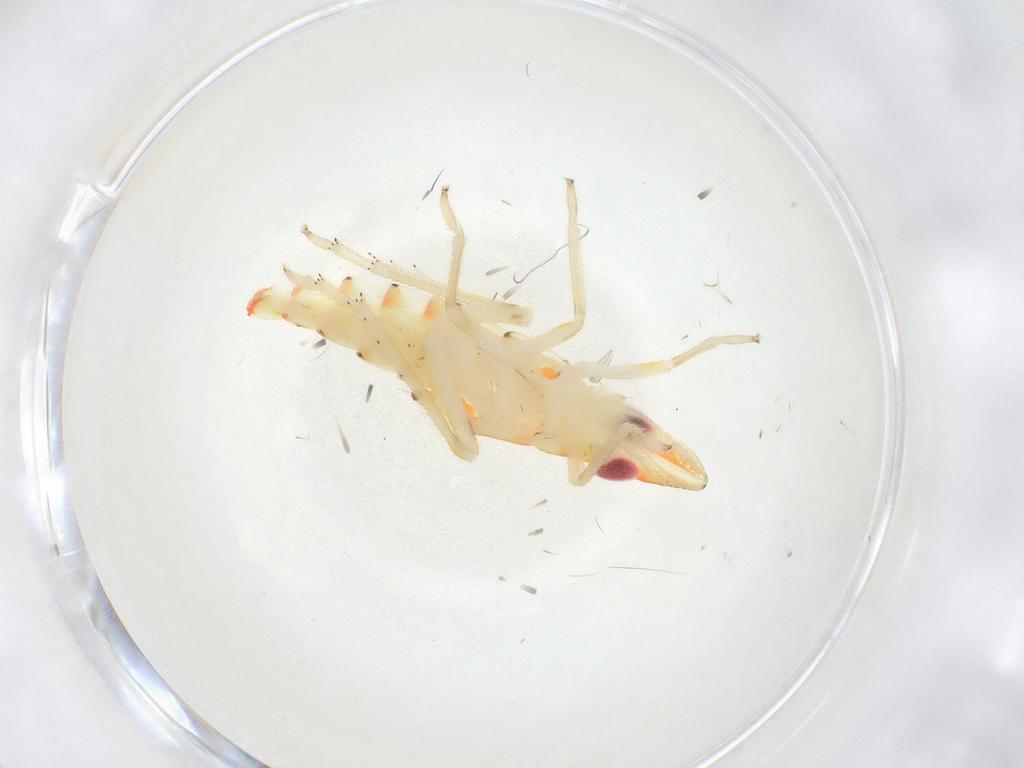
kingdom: Animalia
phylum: Arthropoda
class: Insecta
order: Hemiptera
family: Tropiduchidae
